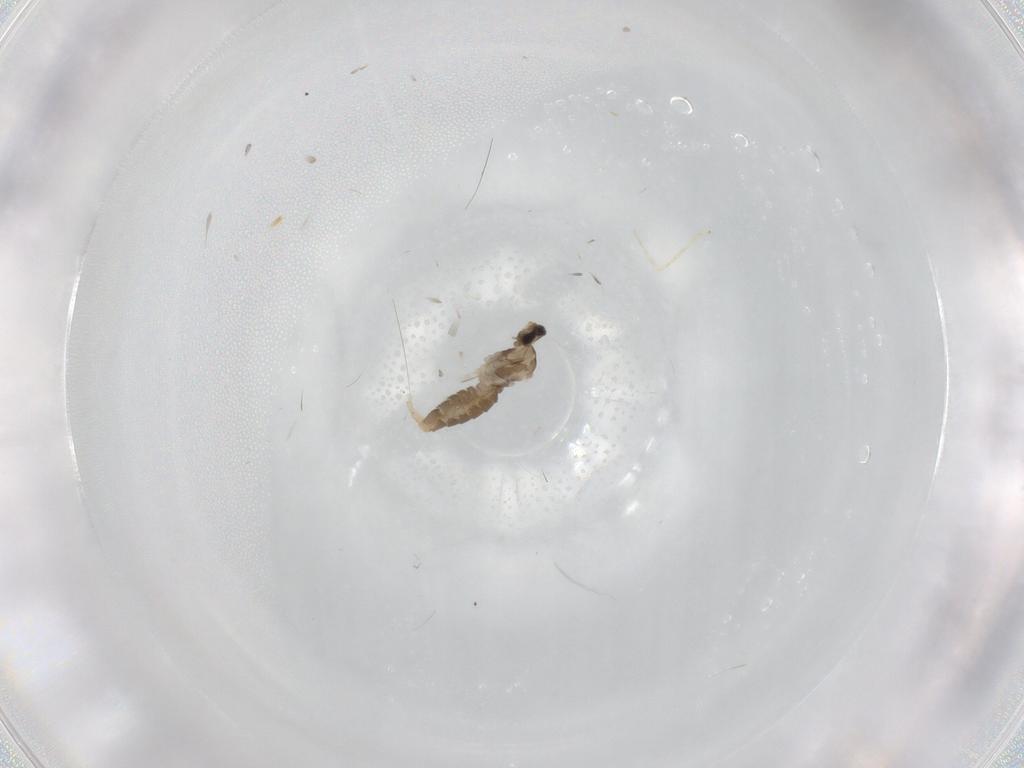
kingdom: Animalia
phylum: Arthropoda
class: Insecta
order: Diptera
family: Cecidomyiidae
